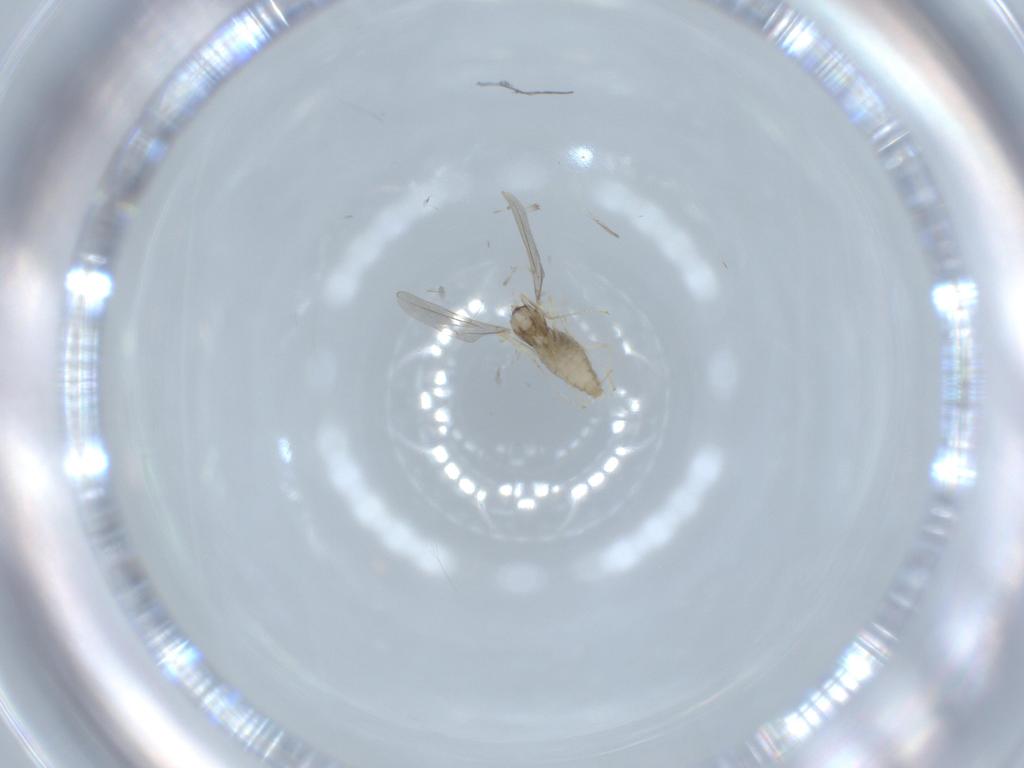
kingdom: Animalia
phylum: Arthropoda
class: Insecta
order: Diptera
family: Cecidomyiidae
